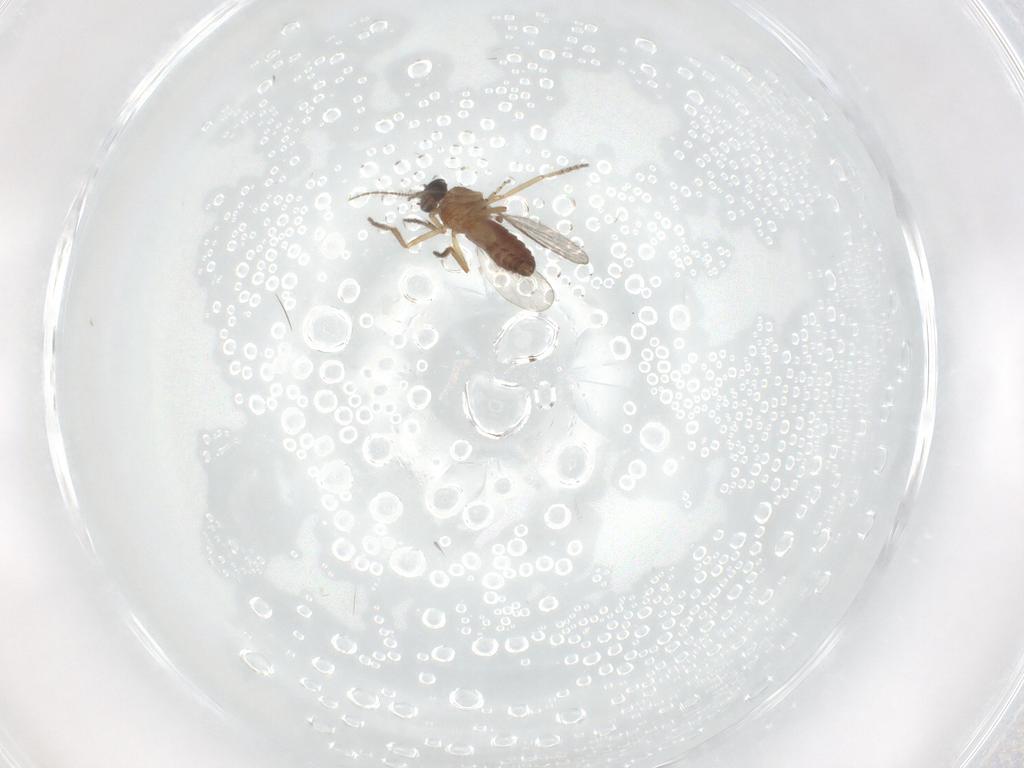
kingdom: Animalia
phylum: Arthropoda
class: Insecta
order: Diptera
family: Ceratopogonidae
